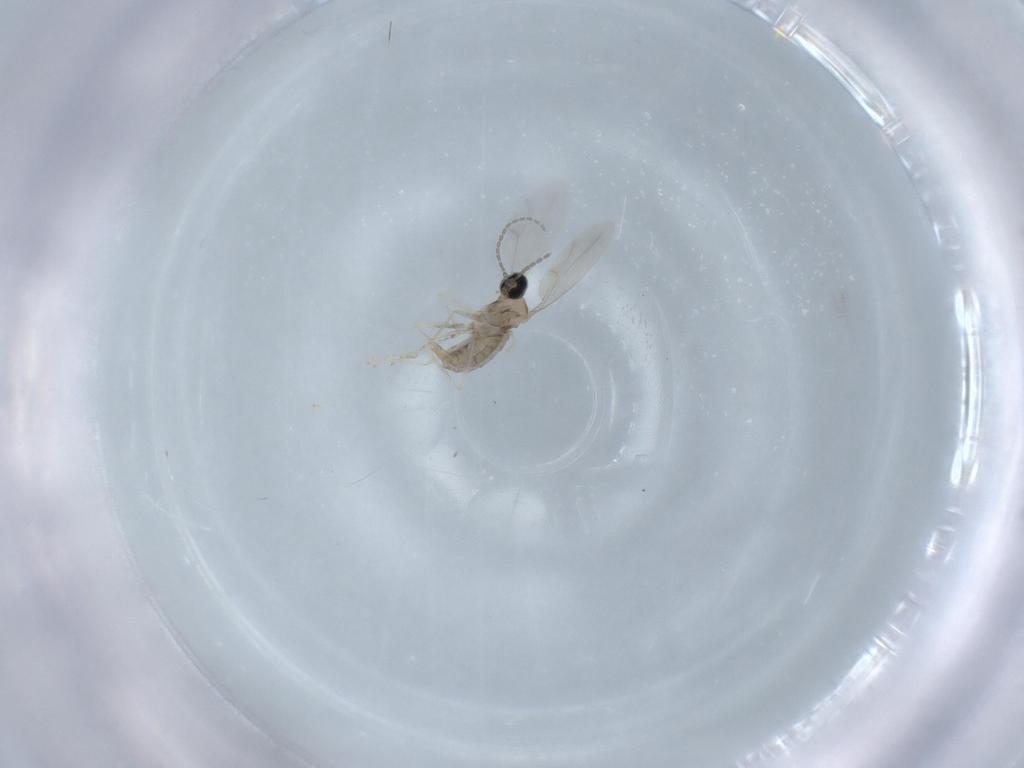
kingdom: Animalia
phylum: Arthropoda
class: Insecta
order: Diptera
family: Cecidomyiidae
